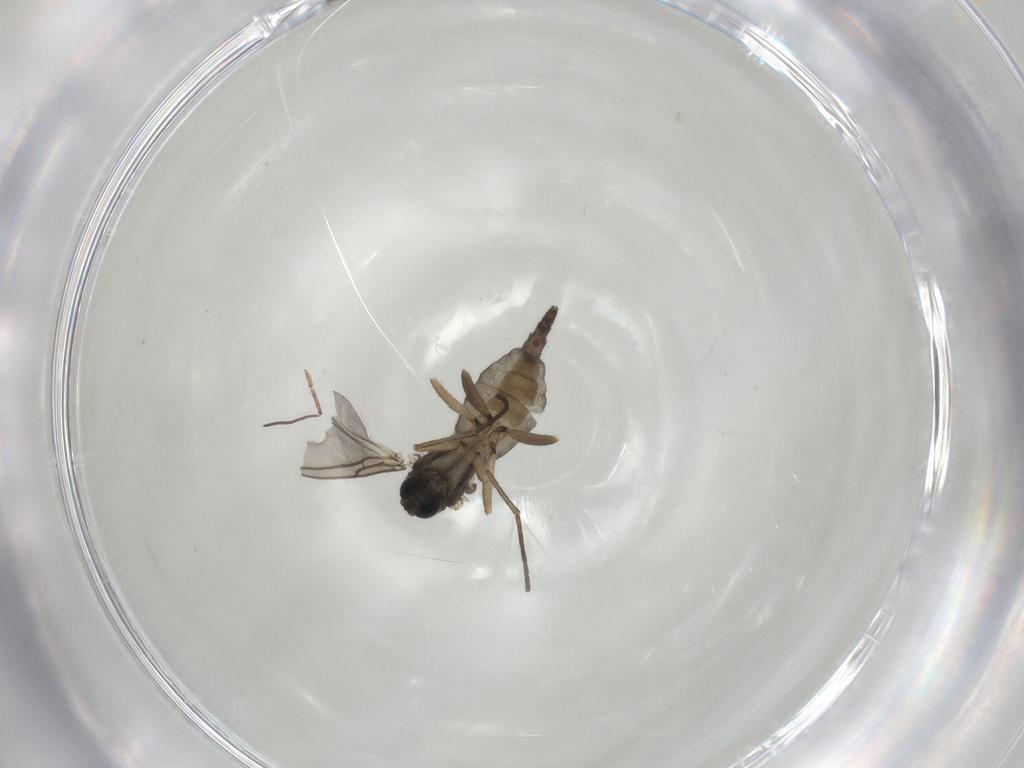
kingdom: Animalia
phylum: Arthropoda
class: Insecta
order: Diptera
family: Sciaridae
